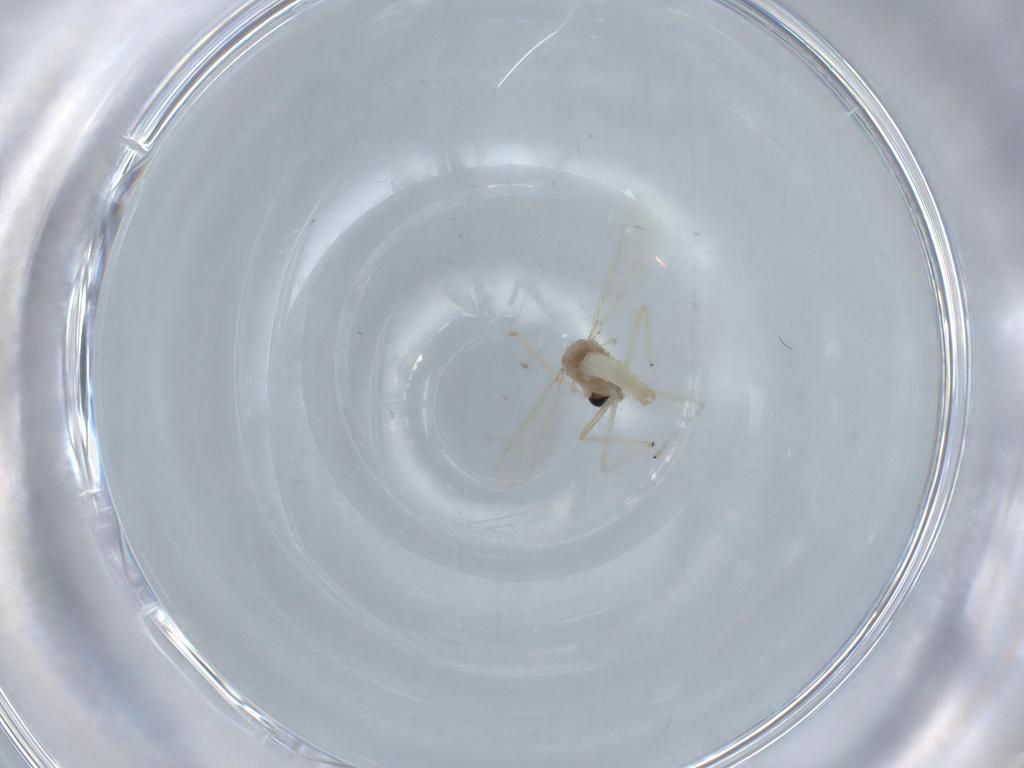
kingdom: Animalia
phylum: Arthropoda
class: Insecta
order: Diptera
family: Chironomidae
